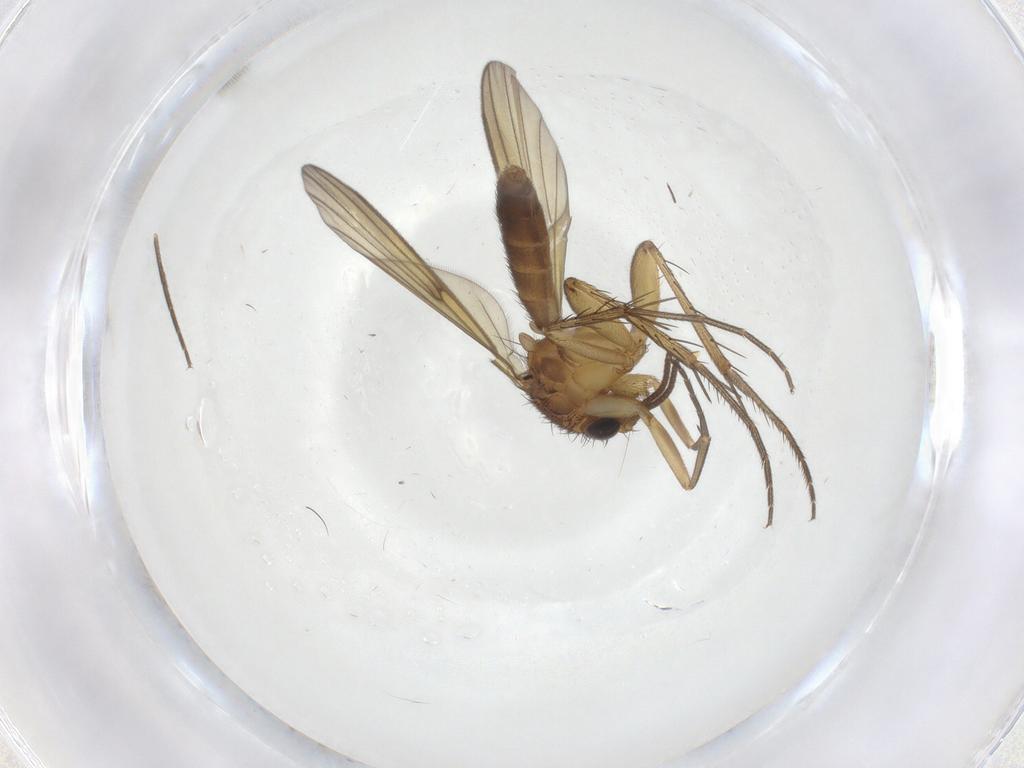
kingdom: Animalia
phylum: Arthropoda
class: Insecta
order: Diptera
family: Mycetophilidae
